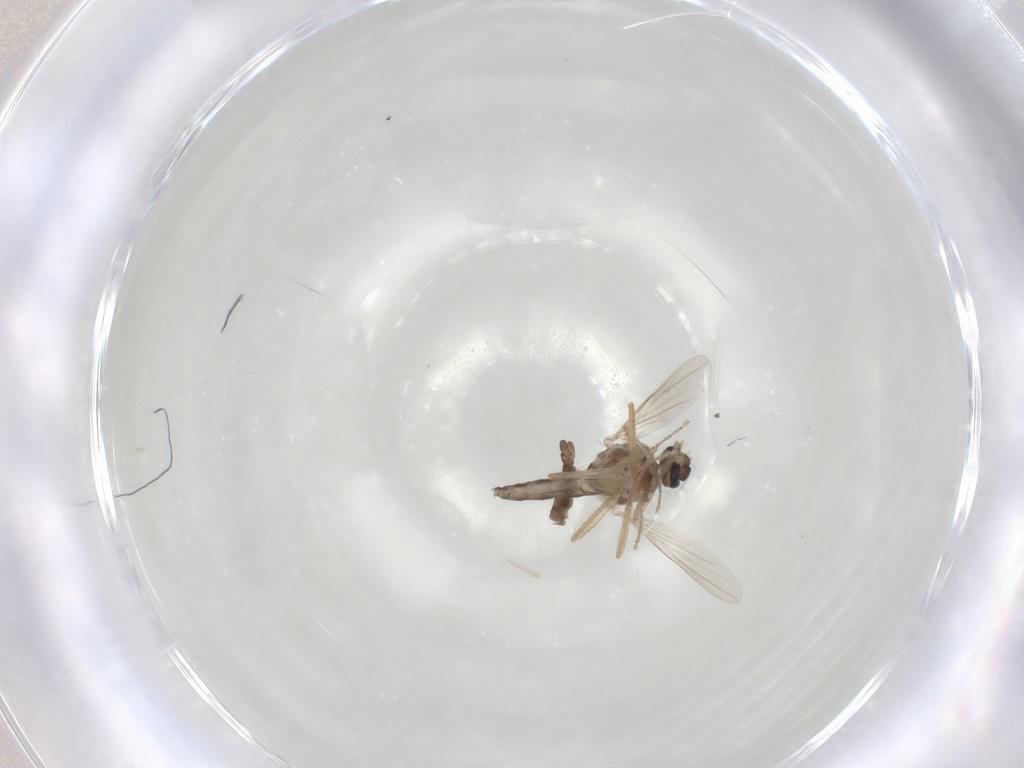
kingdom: Animalia
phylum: Arthropoda
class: Insecta
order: Diptera
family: Ceratopogonidae
